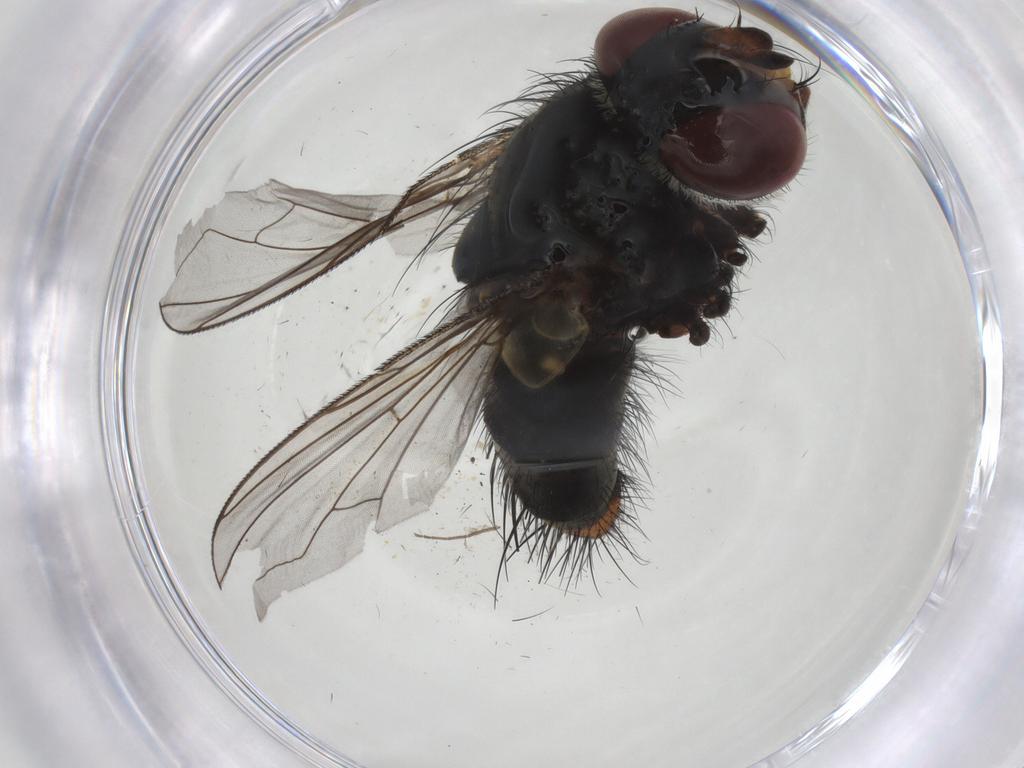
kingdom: Animalia
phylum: Arthropoda
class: Insecta
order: Diptera
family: Tachinidae
